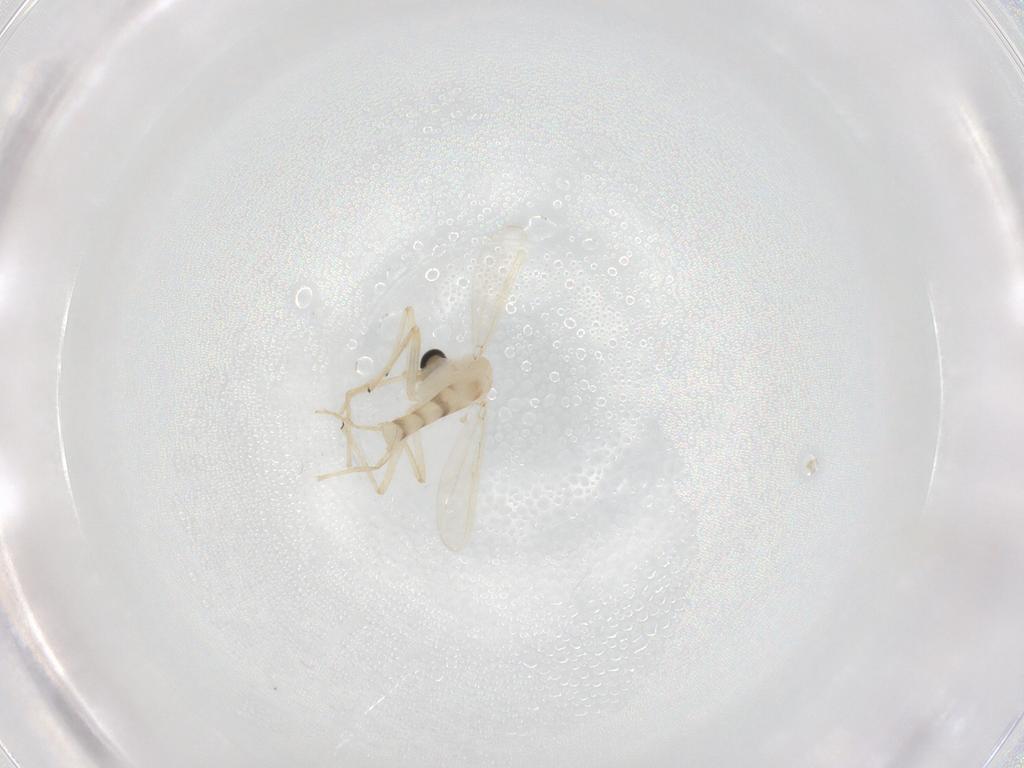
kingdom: Animalia
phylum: Arthropoda
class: Insecta
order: Diptera
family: Chironomidae
